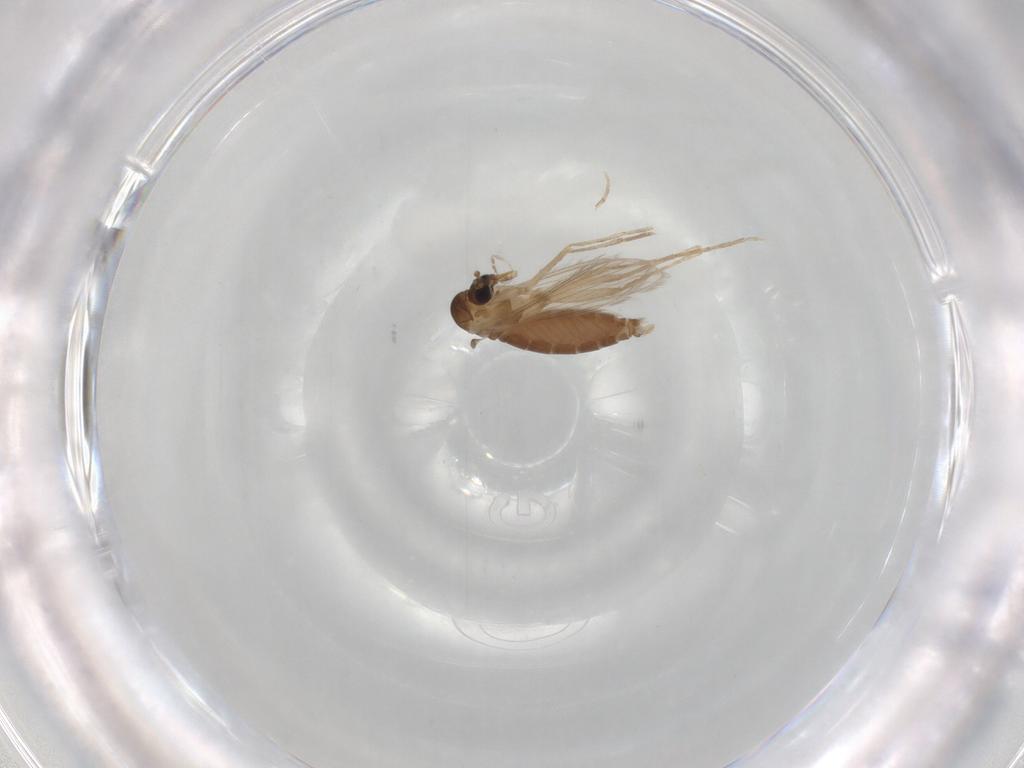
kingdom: Animalia
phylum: Arthropoda
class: Insecta
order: Diptera
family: Psychodidae
